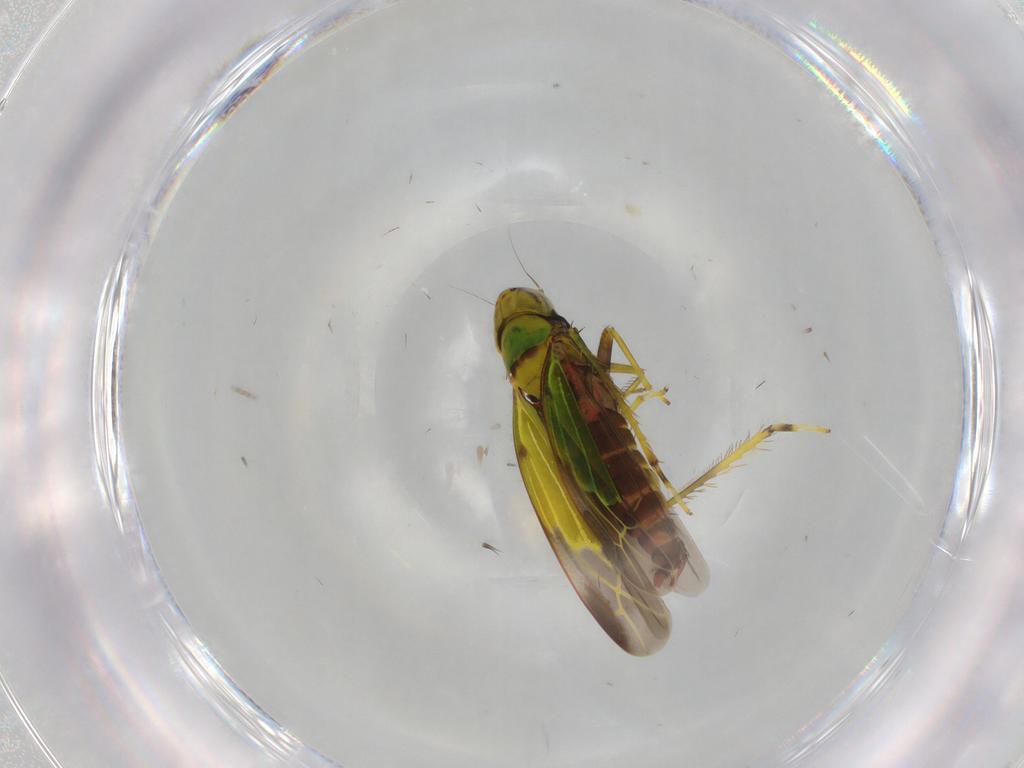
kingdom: Animalia
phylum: Arthropoda
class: Insecta
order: Hemiptera
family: Cicadellidae
